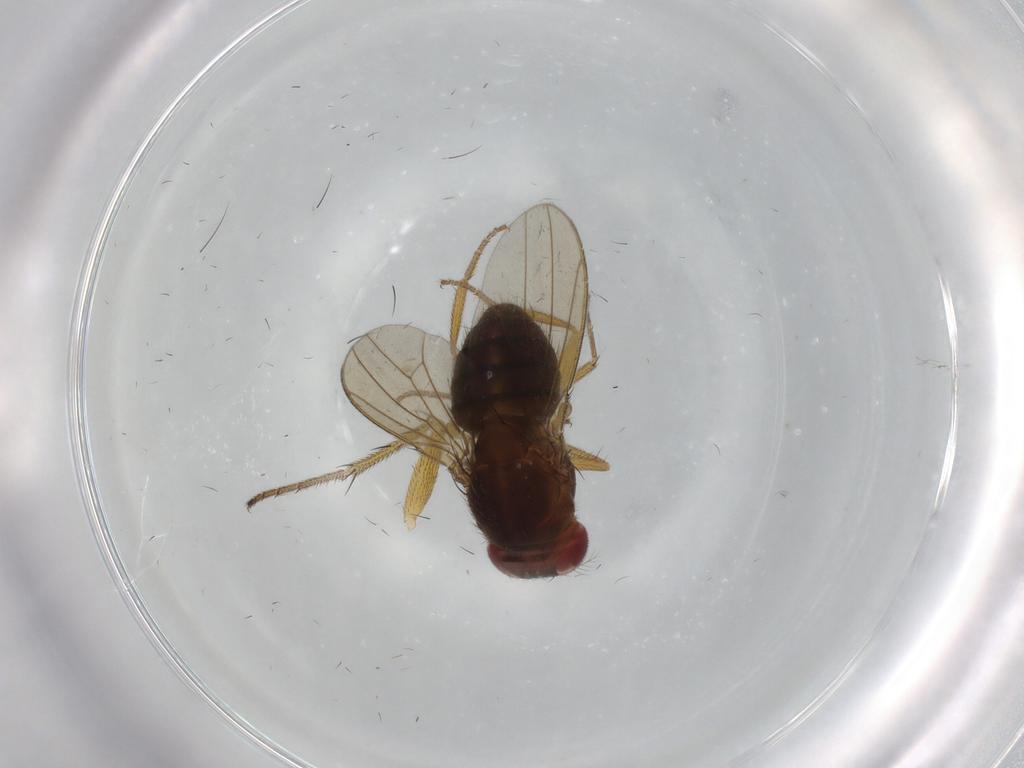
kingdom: Animalia
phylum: Arthropoda
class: Insecta
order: Diptera
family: Drosophilidae
